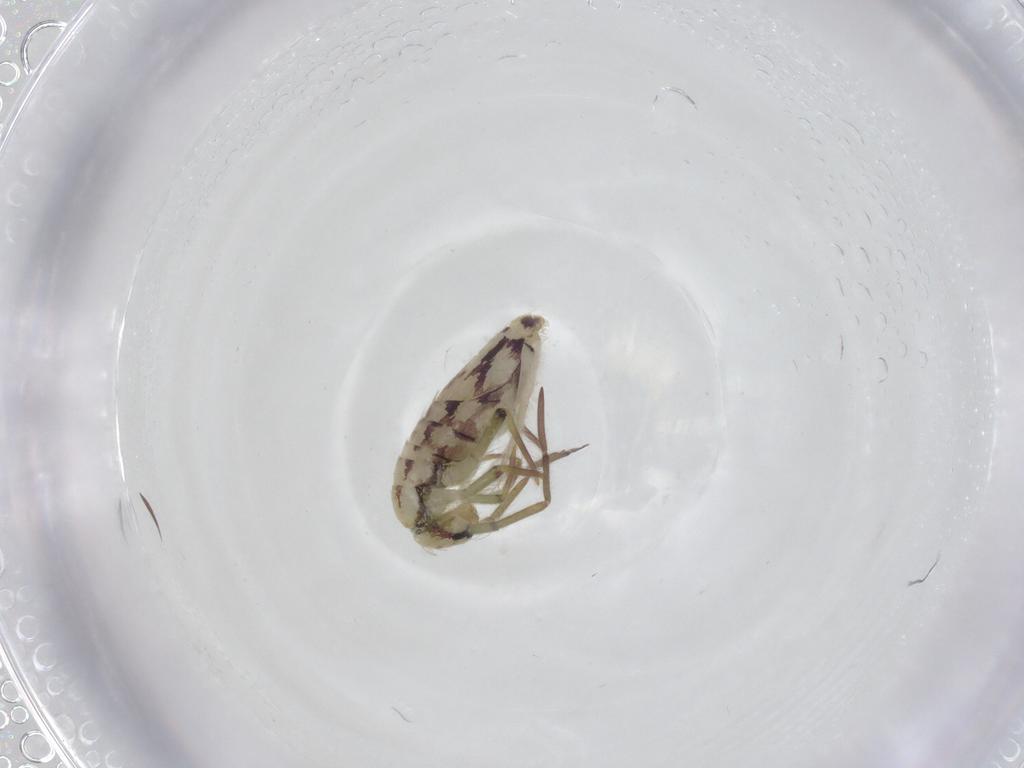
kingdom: Animalia
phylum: Arthropoda
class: Collembola
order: Entomobryomorpha
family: Entomobryidae
